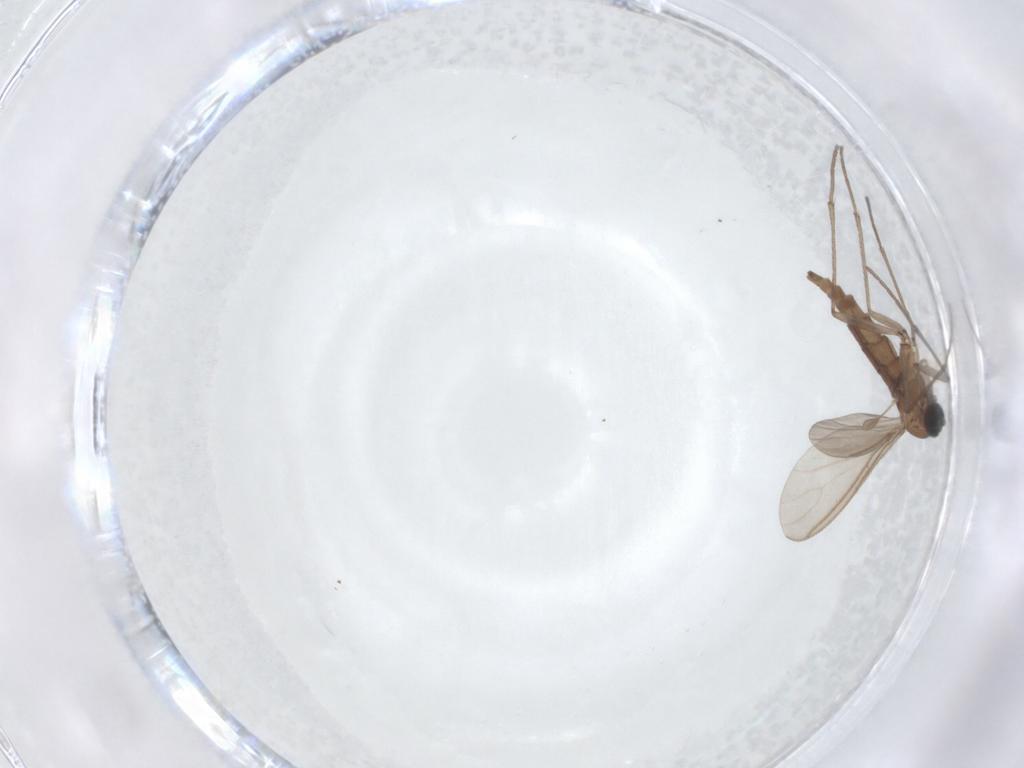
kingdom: Animalia
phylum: Arthropoda
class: Insecta
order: Diptera
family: Sciaridae
